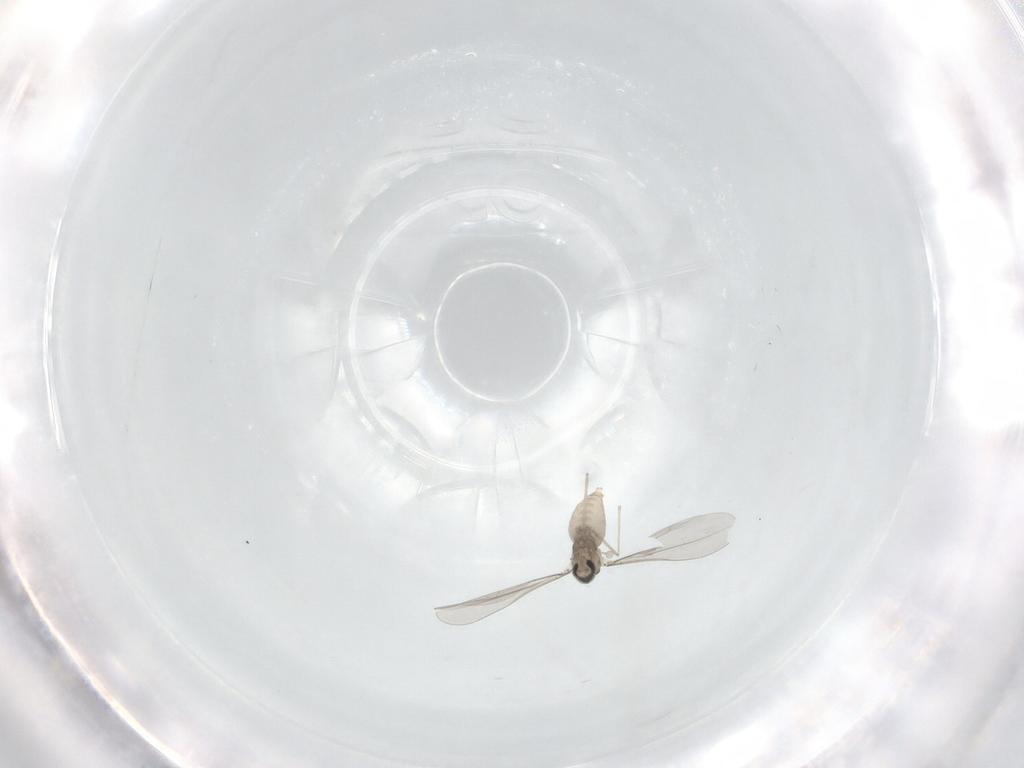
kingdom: Animalia
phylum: Arthropoda
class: Insecta
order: Diptera
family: Cecidomyiidae
